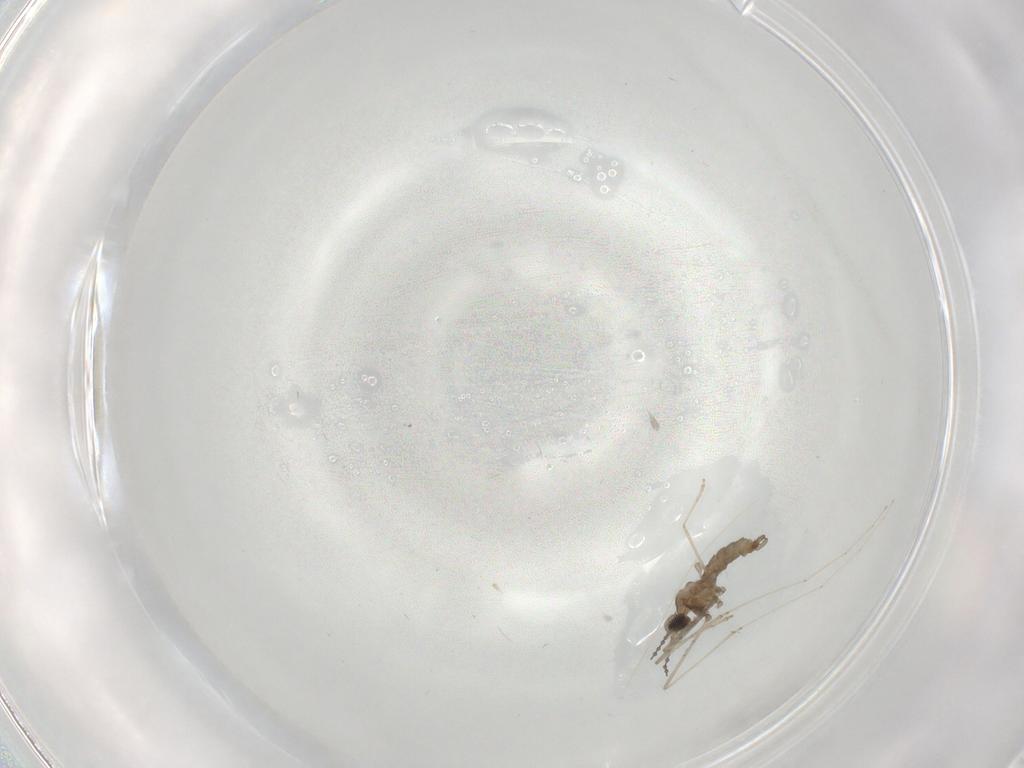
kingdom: Animalia
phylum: Arthropoda
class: Insecta
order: Diptera
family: Cecidomyiidae
